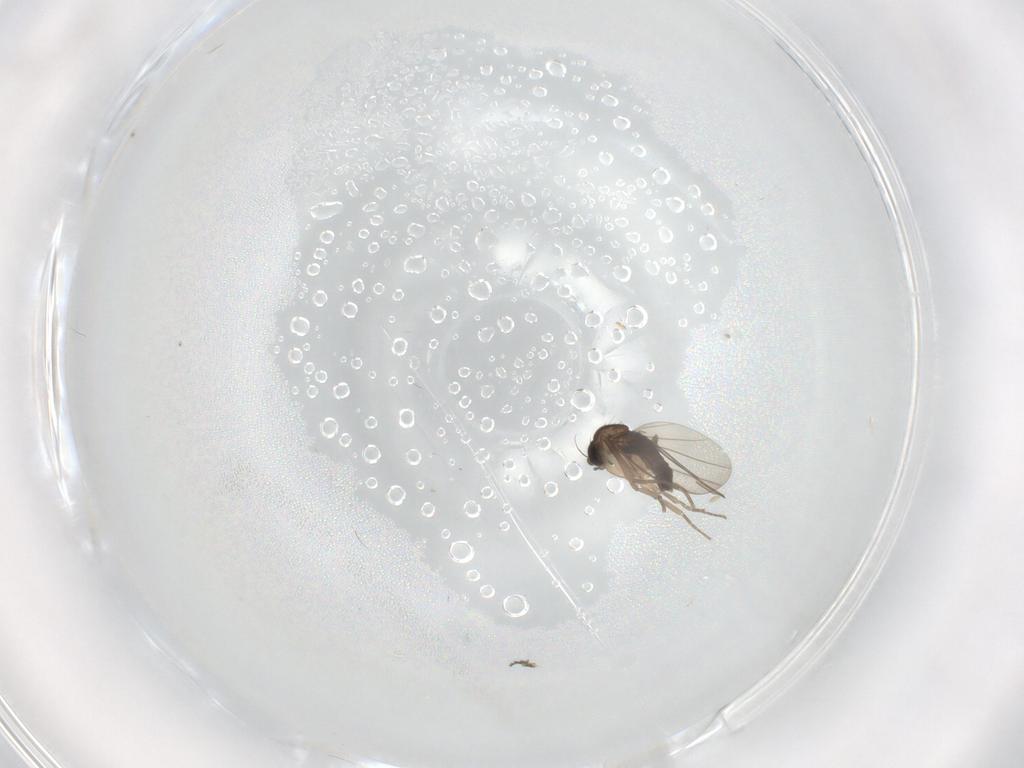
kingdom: Animalia
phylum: Arthropoda
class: Insecta
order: Diptera
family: Phoridae
